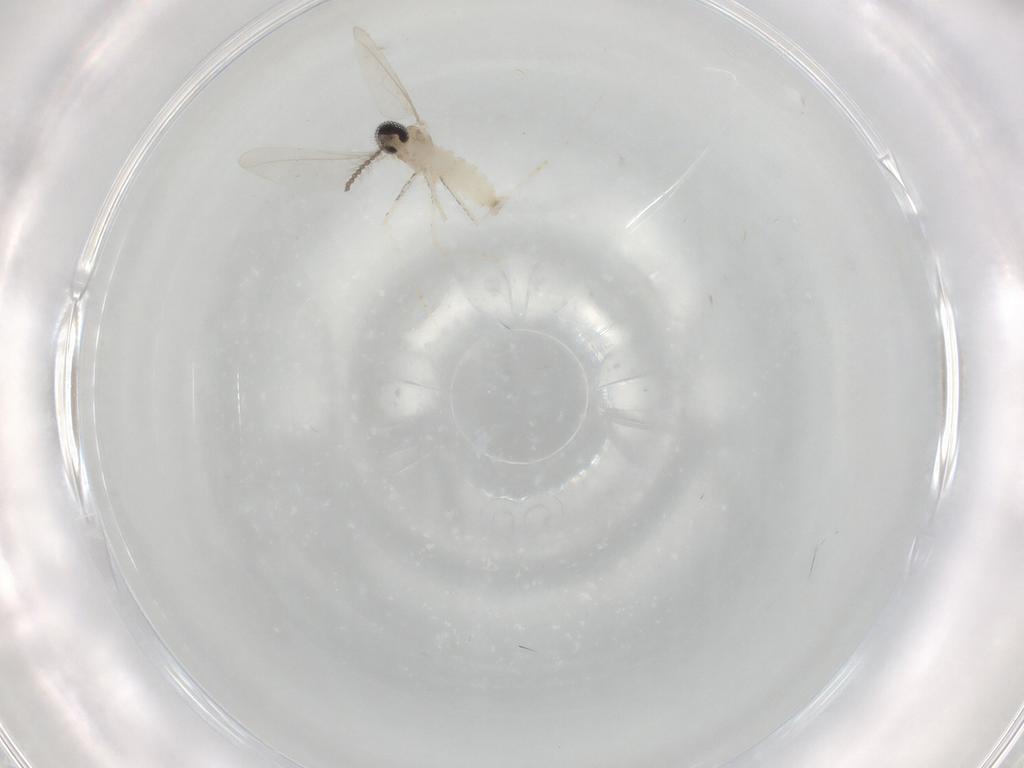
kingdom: Animalia
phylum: Arthropoda
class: Insecta
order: Diptera
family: Cecidomyiidae
